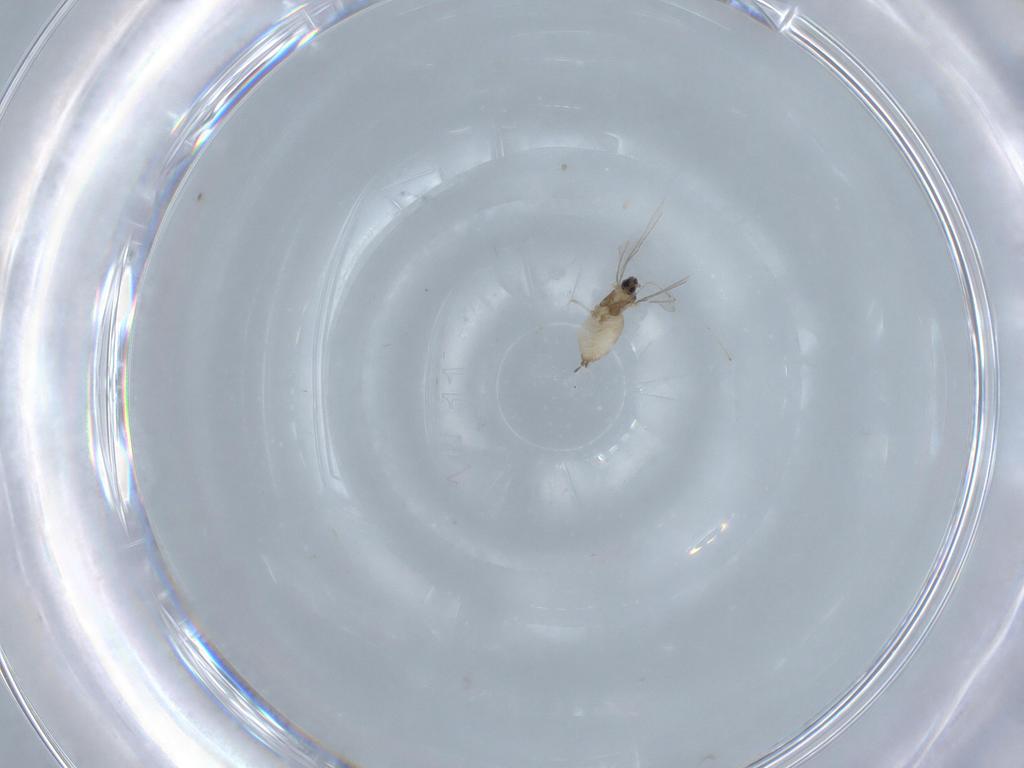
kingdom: Animalia
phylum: Arthropoda
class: Insecta
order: Diptera
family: Cecidomyiidae
